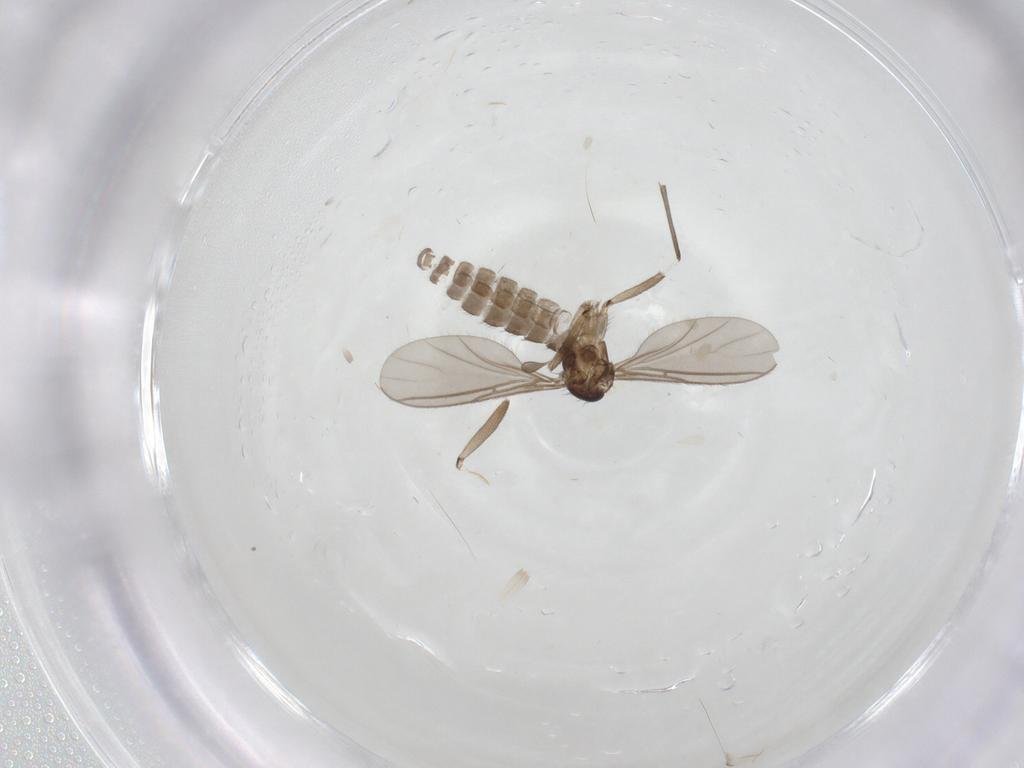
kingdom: Animalia
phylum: Arthropoda
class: Insecta
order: Diptera
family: Sciaridae
